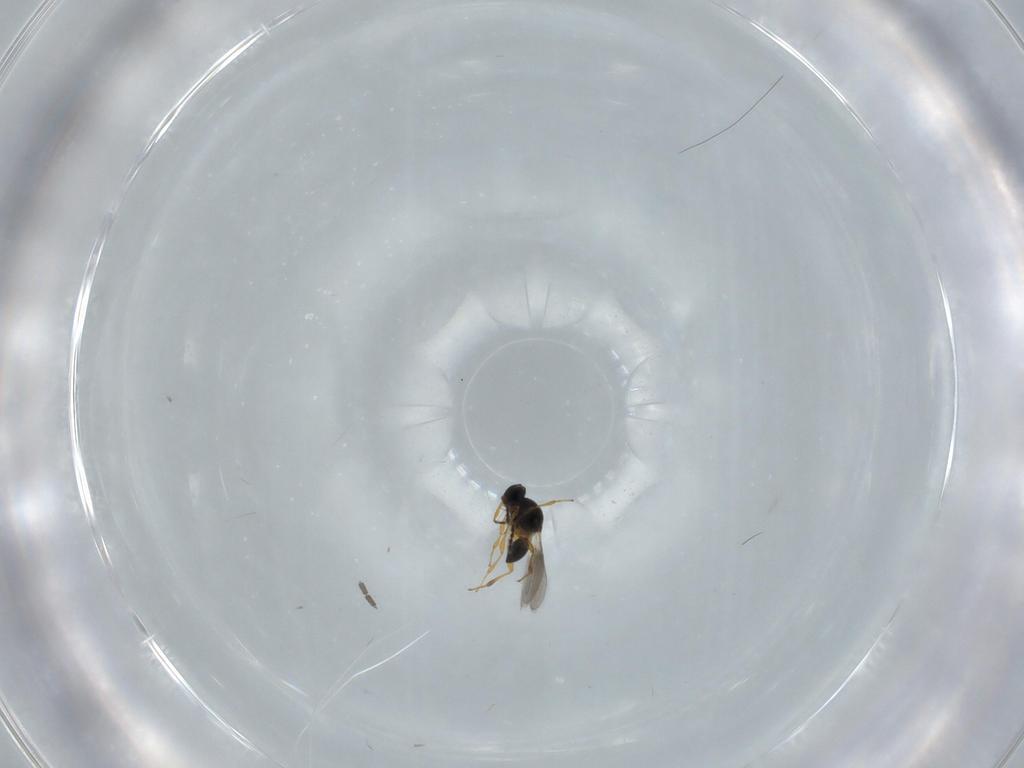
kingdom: Animalia
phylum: Arthropoda
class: Insecta
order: Hymenoptera
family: Platygastridae
